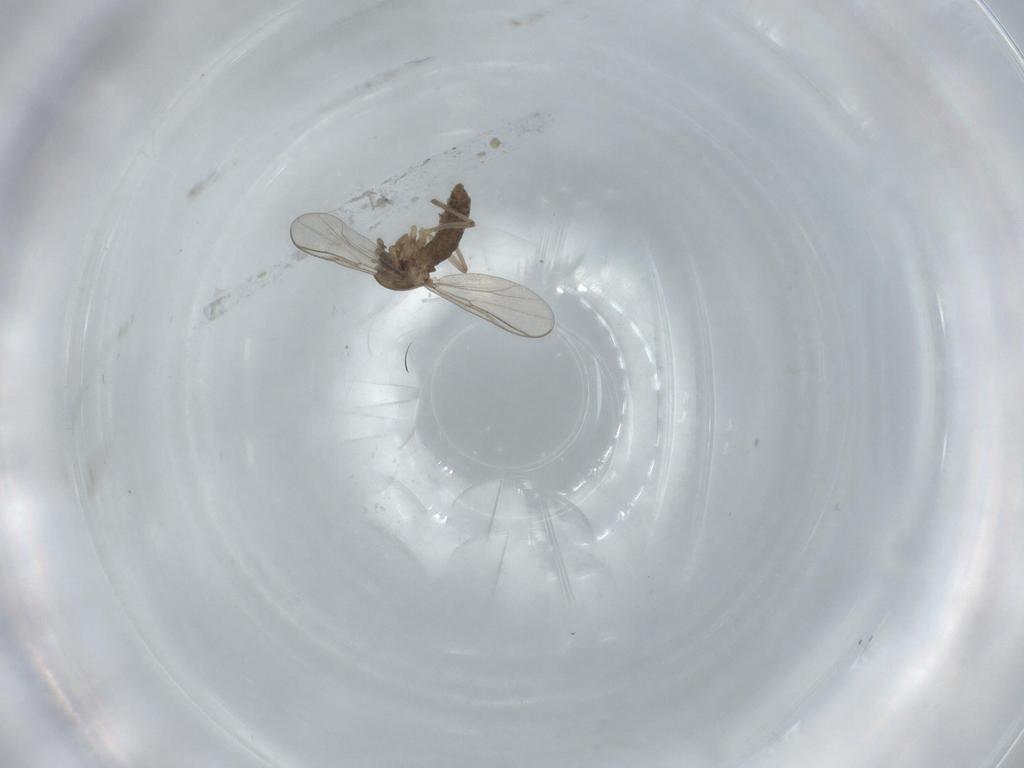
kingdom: Animalia
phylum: Arthropoda
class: Insecta
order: Diptera
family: Chironomidae
